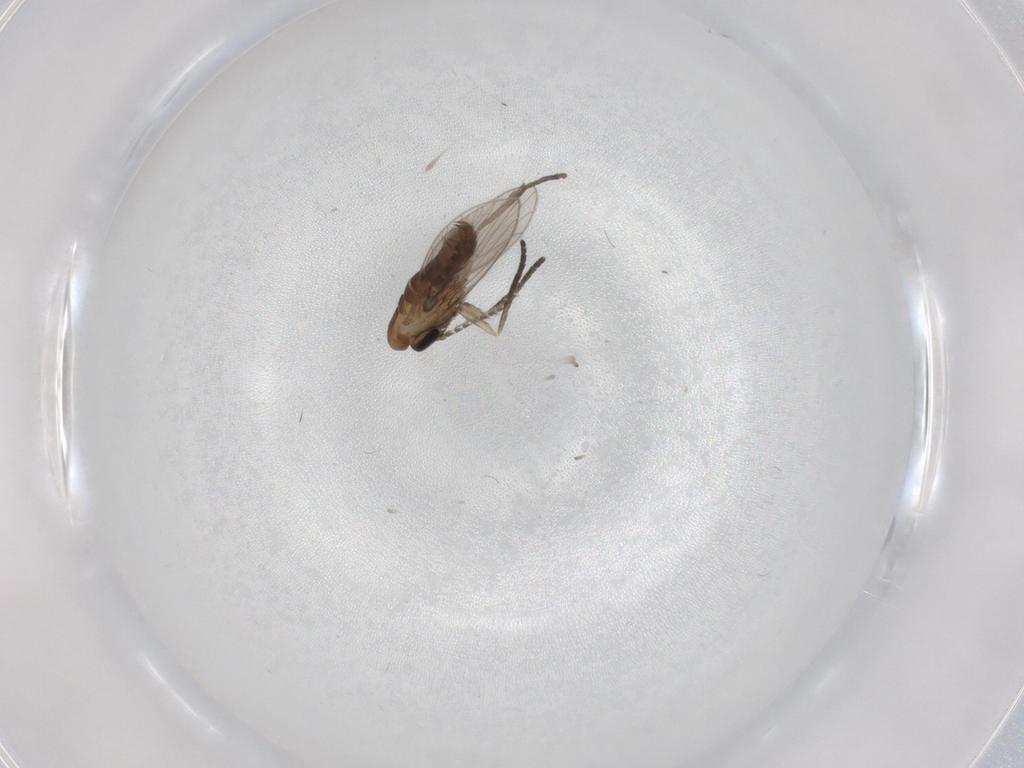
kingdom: Animalia
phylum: Arthropoda
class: Insecta
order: Diptera
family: Psychodidae
